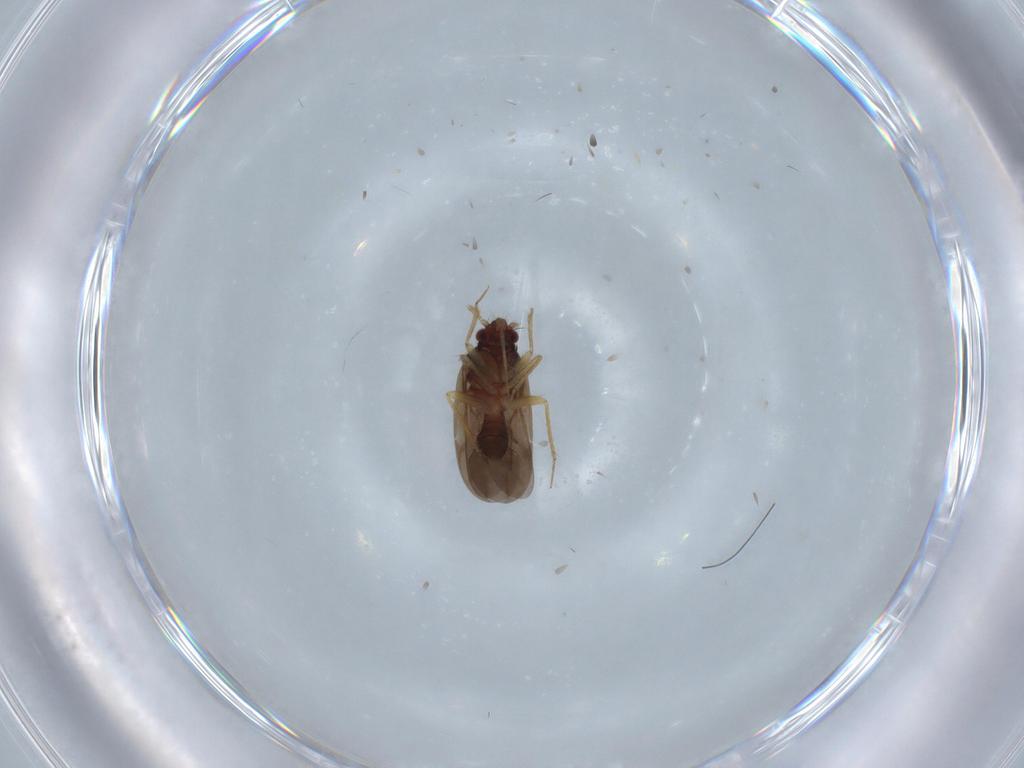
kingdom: Animalia
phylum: Arthropoda
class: Insecta
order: Hemiptera
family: Ceratocombidae
